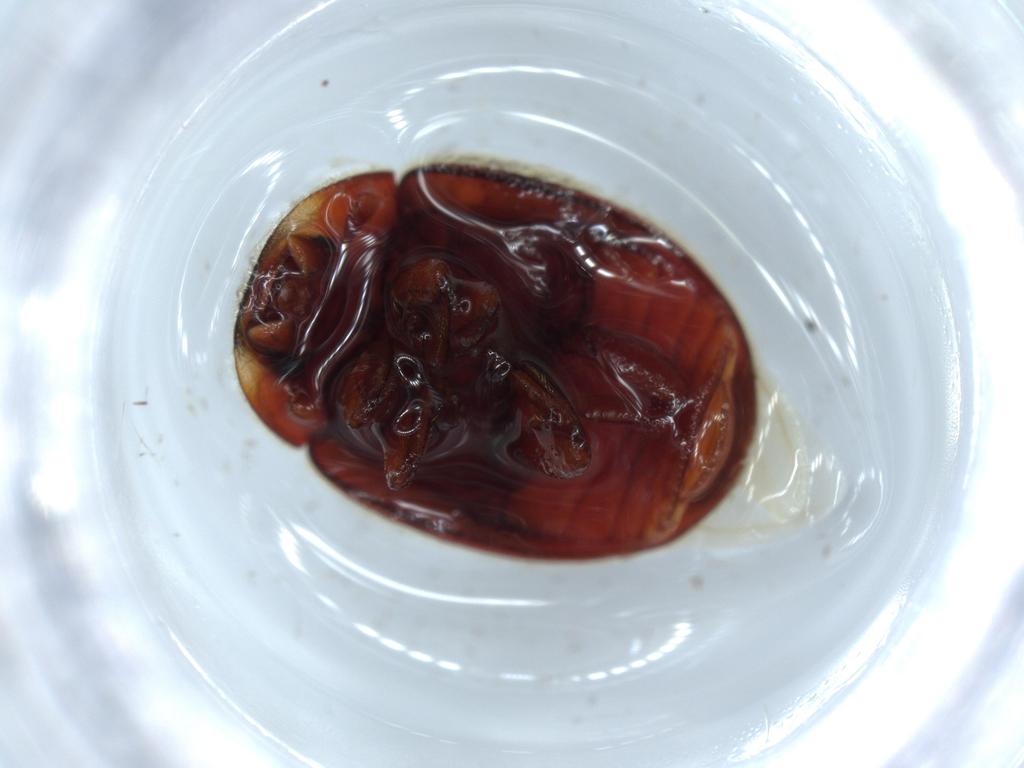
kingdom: Animalia
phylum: Arthropoda
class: Insecta
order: Coleoptera
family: Coccinellidae
